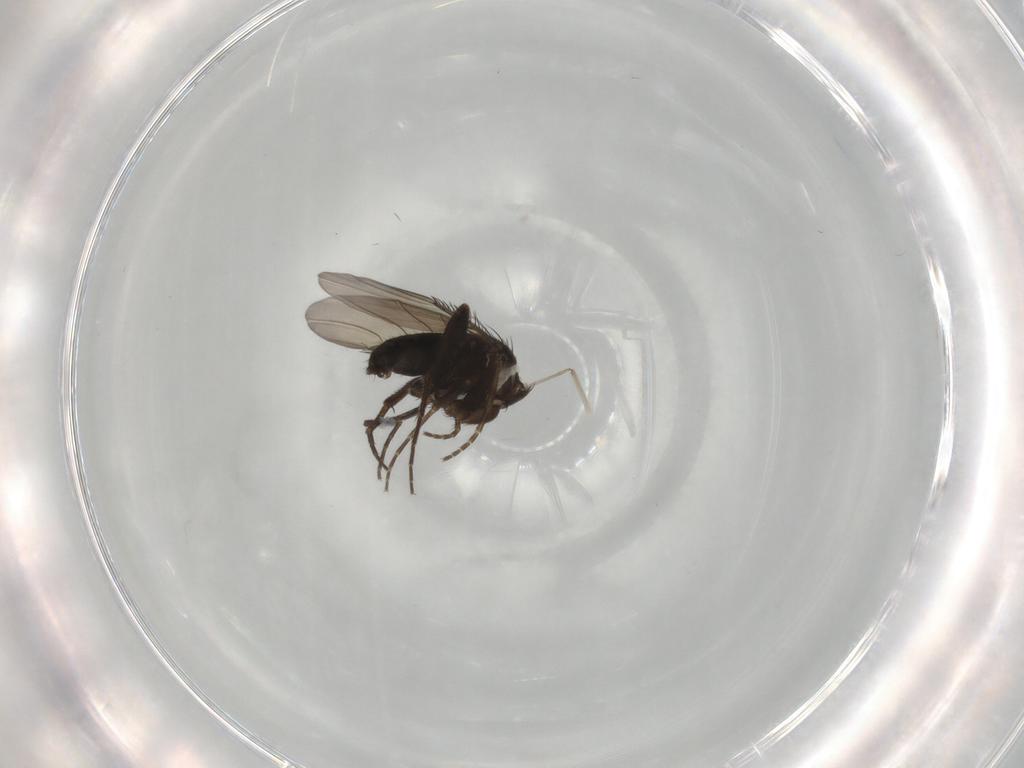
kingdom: Animalia
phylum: Arthropoda
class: Insecta
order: Diptera
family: Phoridae
